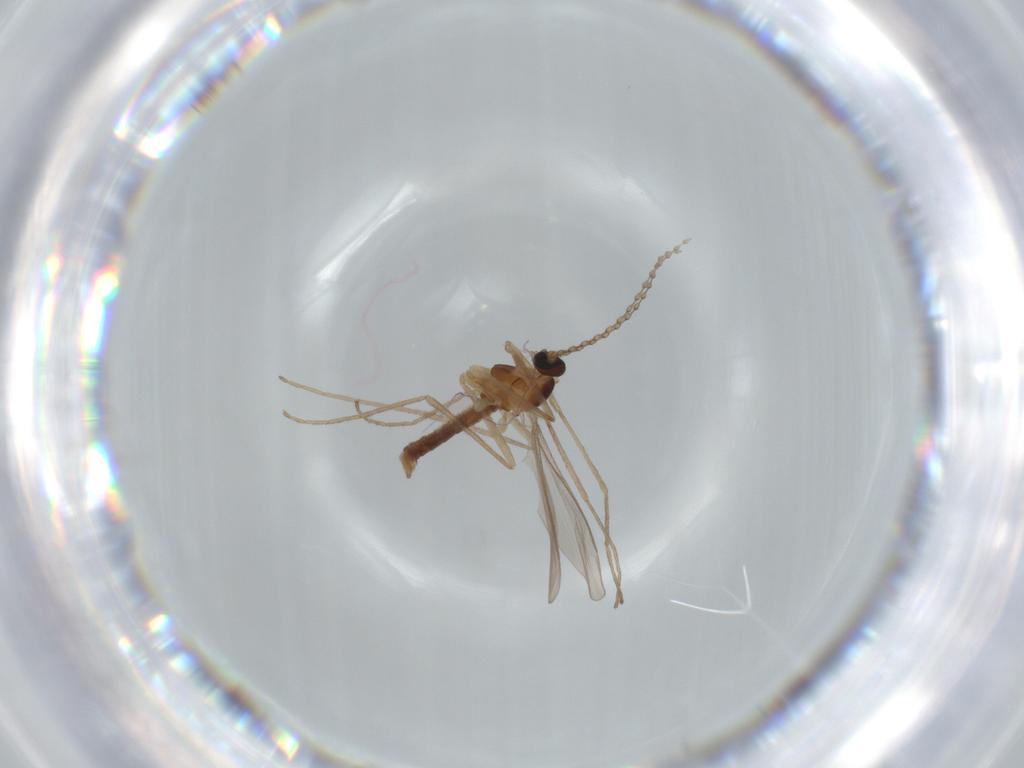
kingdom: Animalia
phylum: Arthropoda
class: Insecta
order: Diptera
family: Cecidomyiidae
